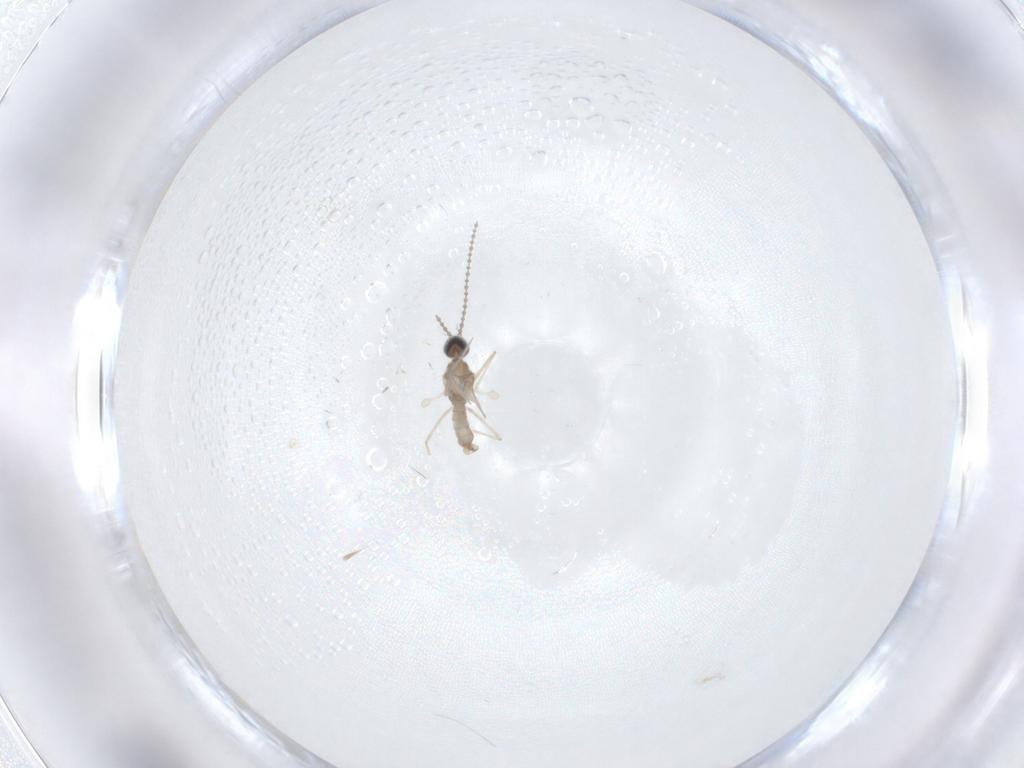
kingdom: Animalia
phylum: Arthropoda
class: Insecta
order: Diptera
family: Cecidomyiidae
